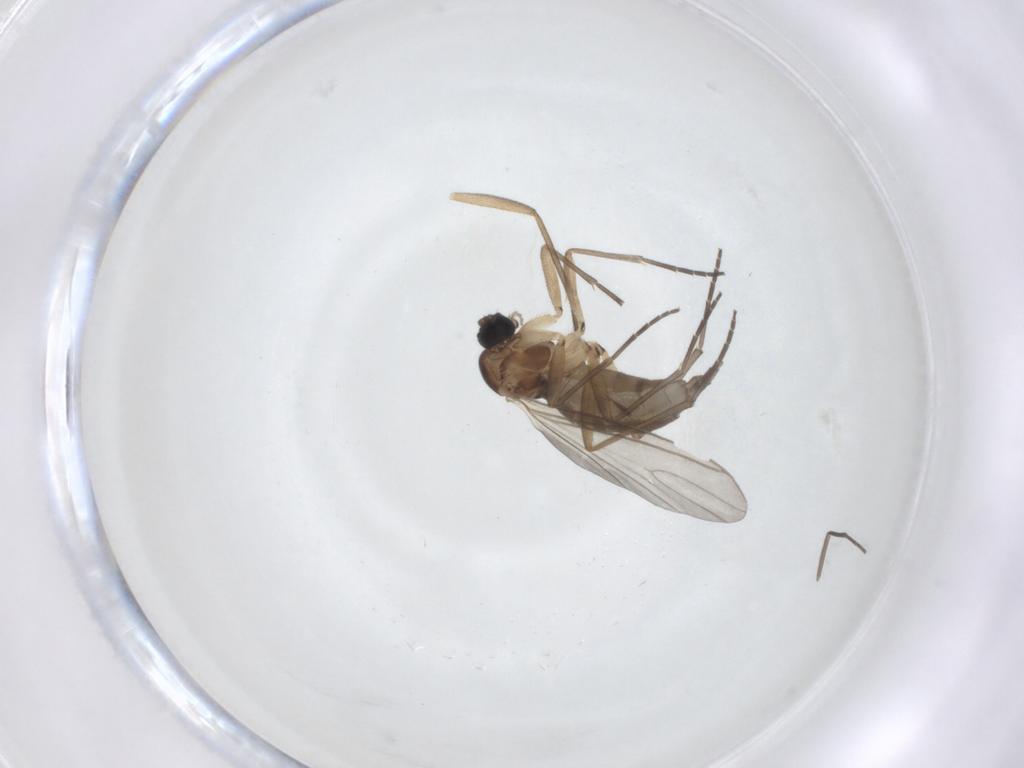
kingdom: Animalia
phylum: Arthropoda
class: Insecta
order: Diptera
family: Sciaridae
